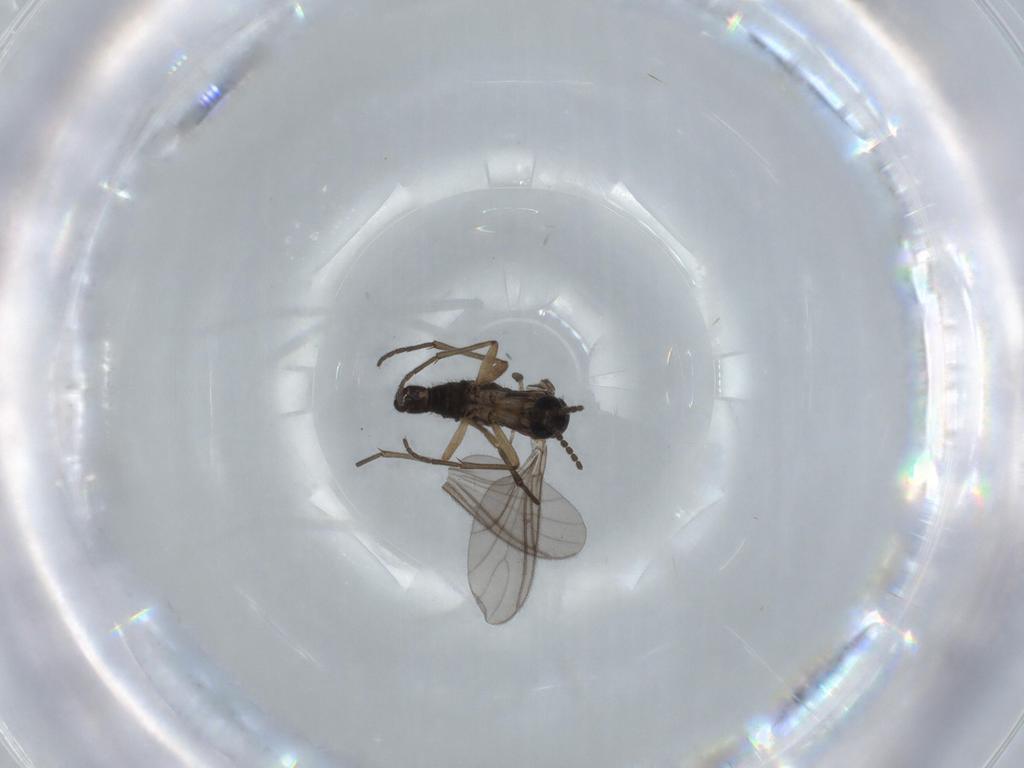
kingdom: Animalia
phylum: Arthropoda
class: Insecta
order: Diptera
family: Sciaridae
